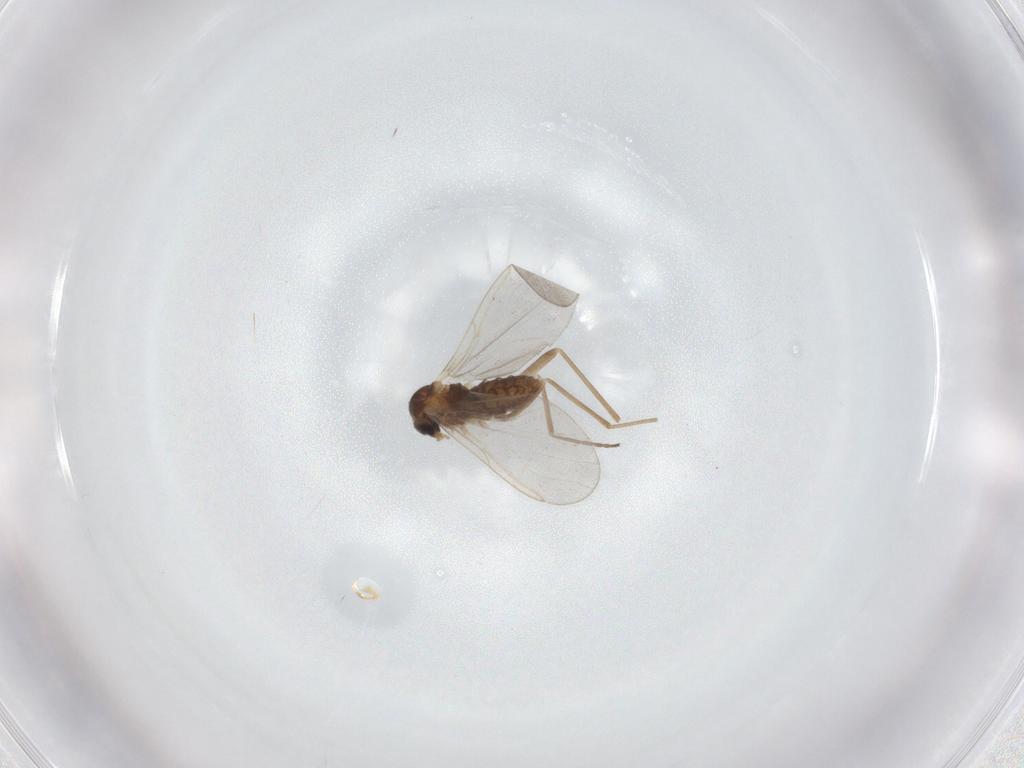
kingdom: Animalia
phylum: Arthropoda
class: Insecta
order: Diptera
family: Cecidomyiidae
